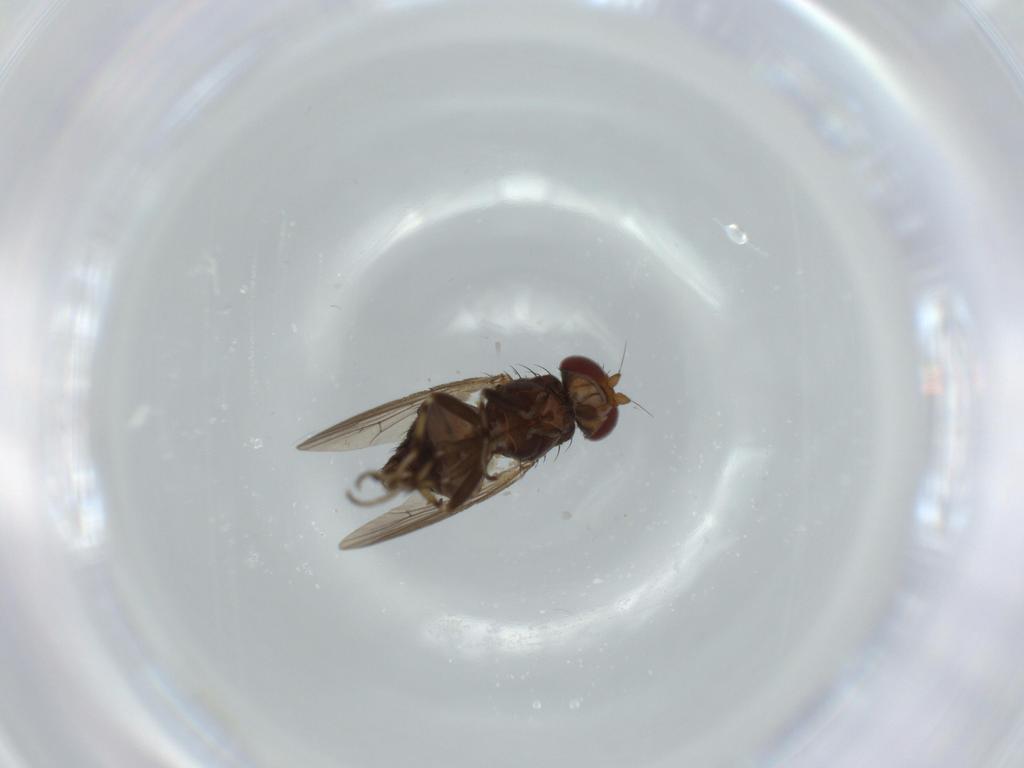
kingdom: Animalia
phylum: Arthropoda
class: Insecta
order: Diptera
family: Heleomyzidae
